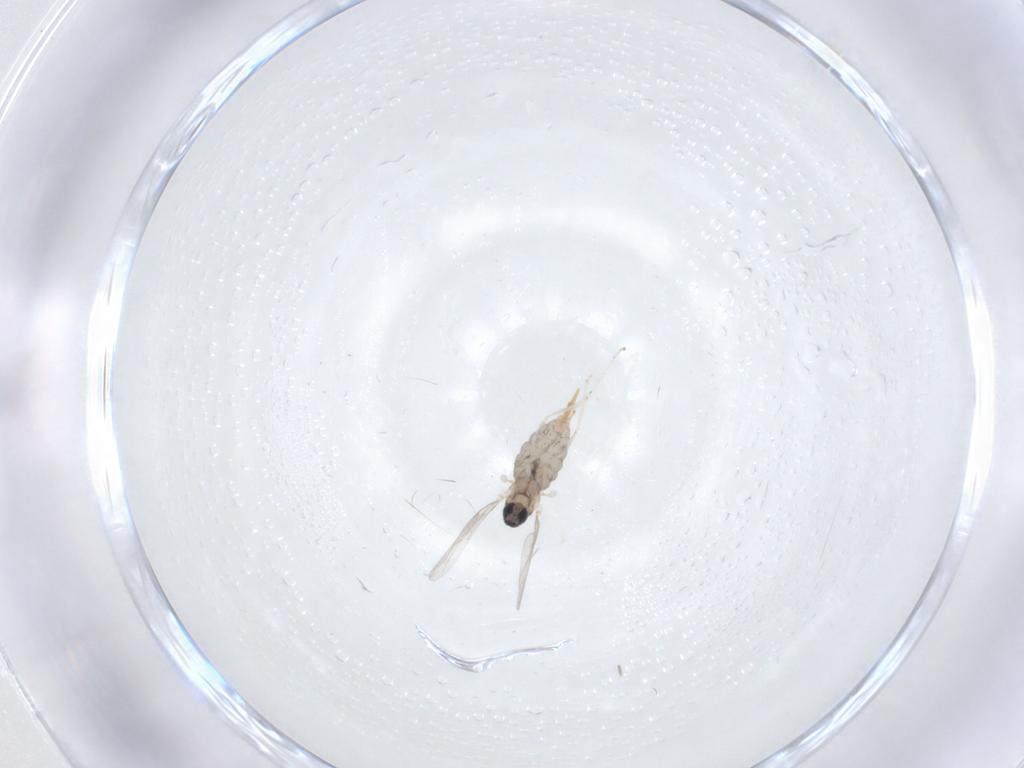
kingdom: Animalia
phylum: Arthropoda
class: Insecta
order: Diptera
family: Cecidomyiidae
